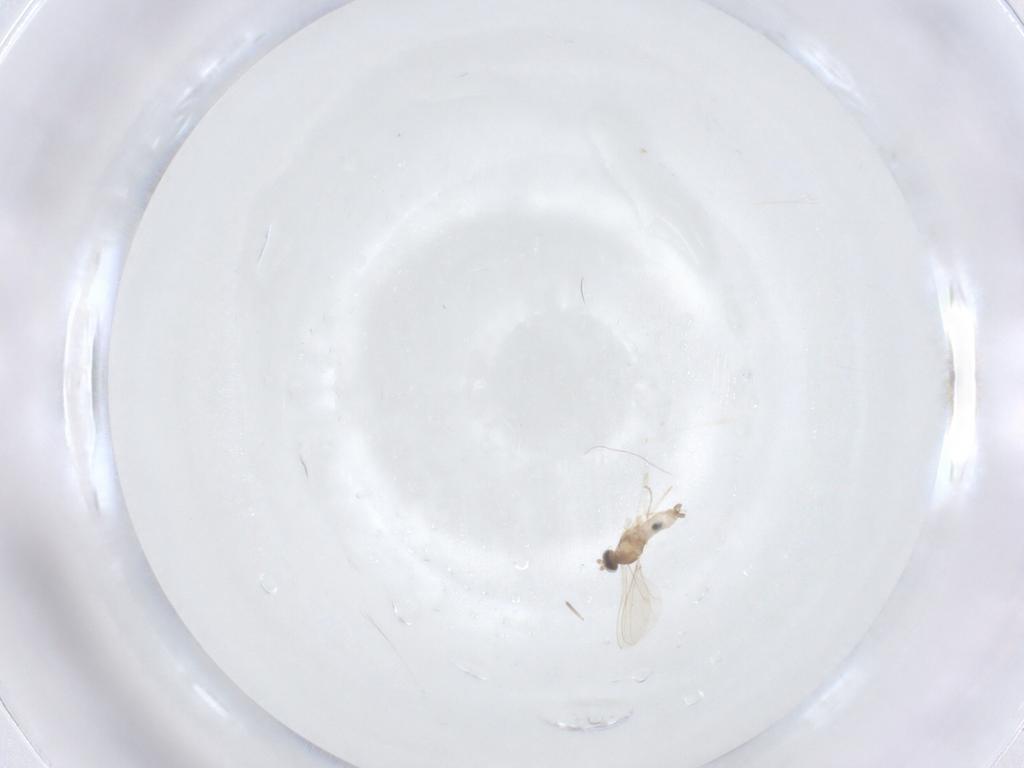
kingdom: Animalia
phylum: Arthropoda
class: Insecta
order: Diptera
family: Cecidomyiidae
